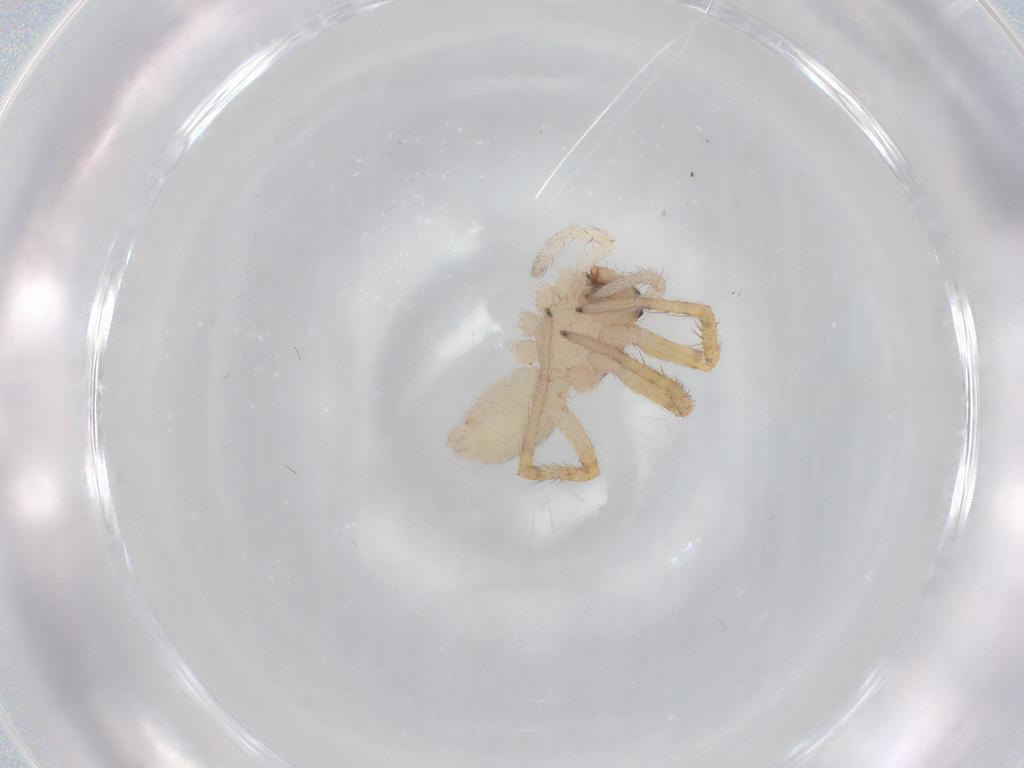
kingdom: Animalia
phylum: Arthropoda
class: Arachnida
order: Araneae
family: Corinnidae
